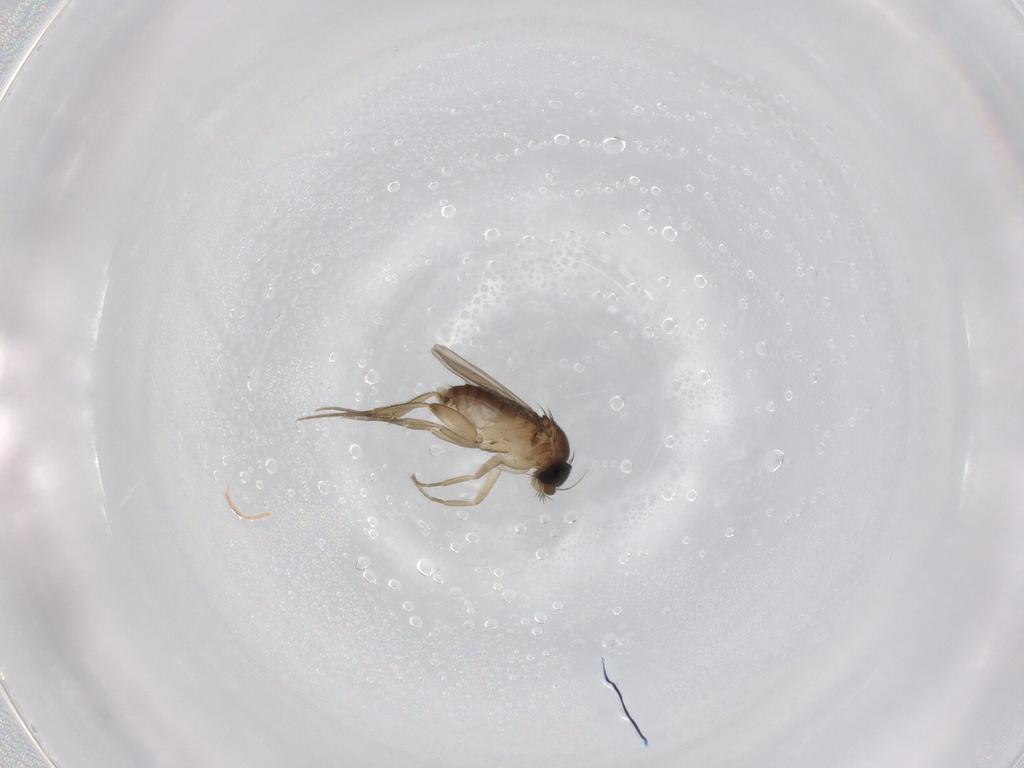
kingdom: Animalia
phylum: Arthropoda
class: Insecta
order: Diptera
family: Phoridae
